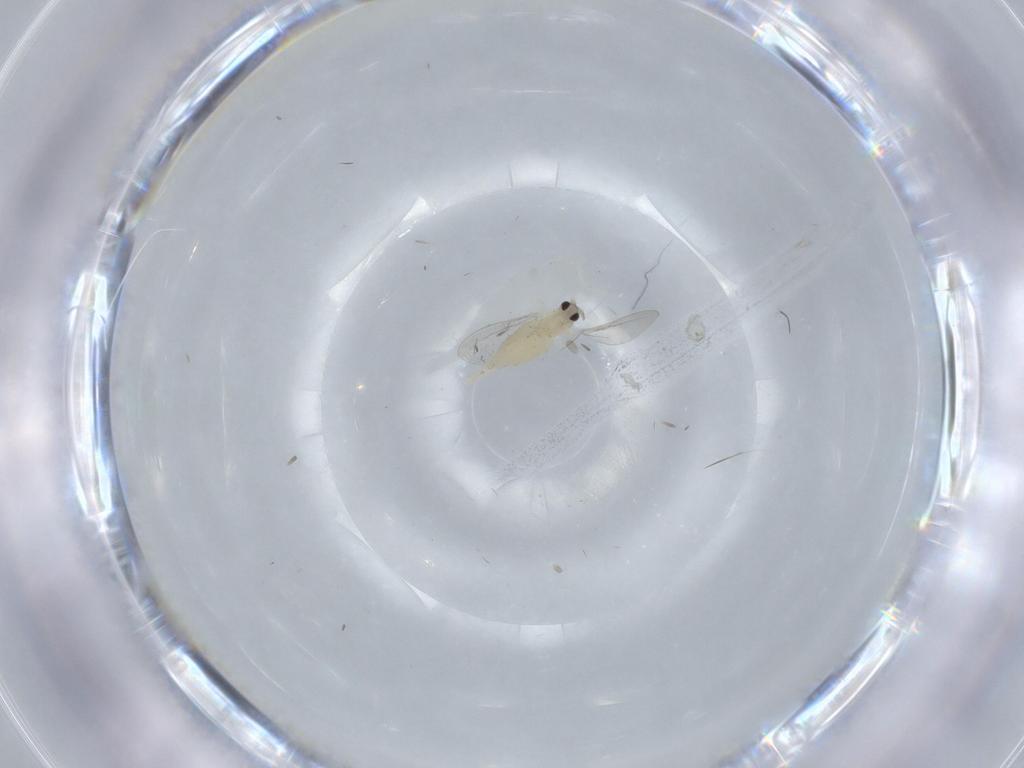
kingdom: Animalia
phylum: Arthropoda
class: Insecta
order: Diptera
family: Cecidomyiidae
